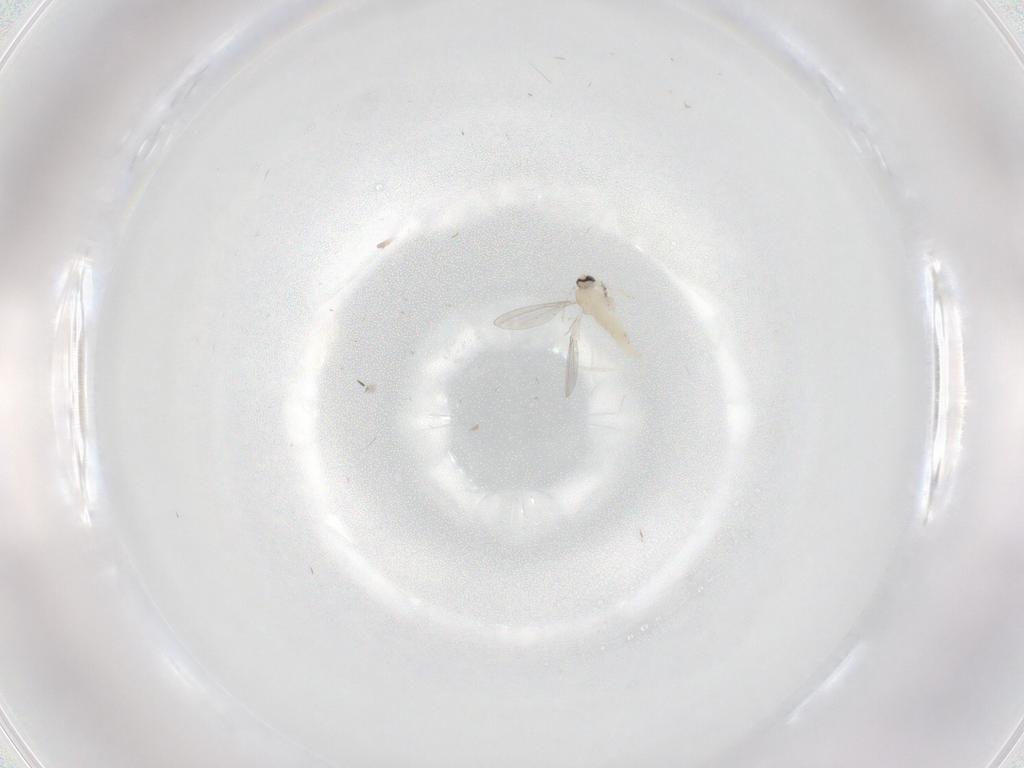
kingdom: Animalia
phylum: Arthropoda
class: Insecta
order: Diptera
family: Cecidomyiidae
